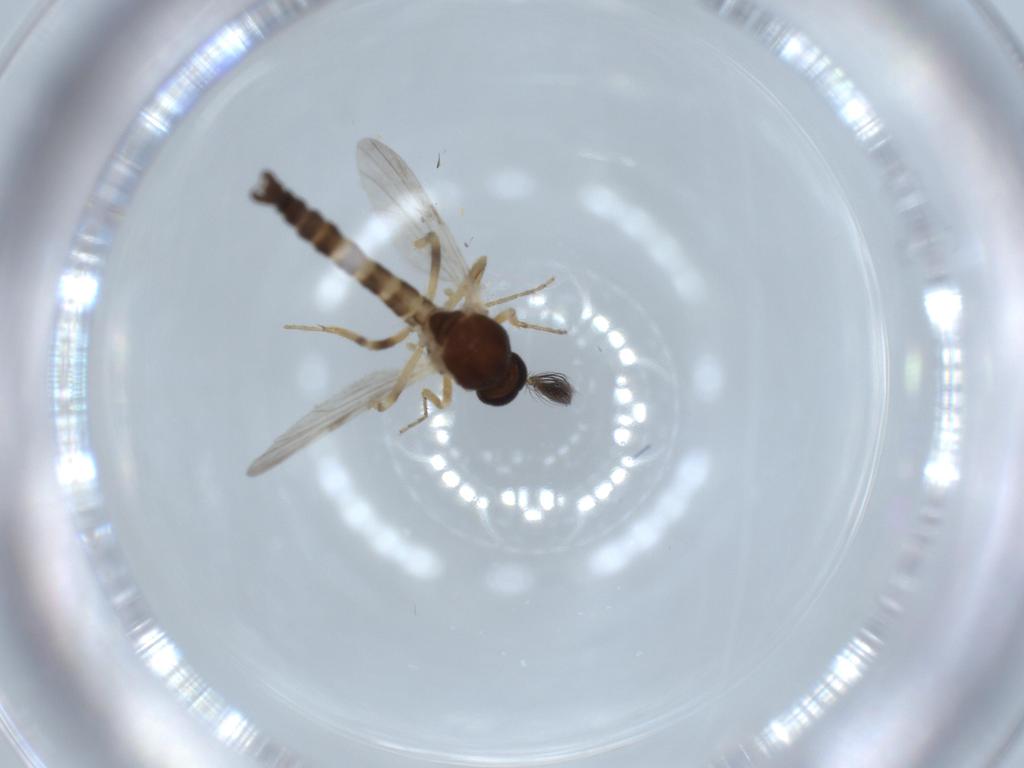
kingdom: Animalia
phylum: Arthropoda
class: Insecta
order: Diptera
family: Ceratopogonidae
